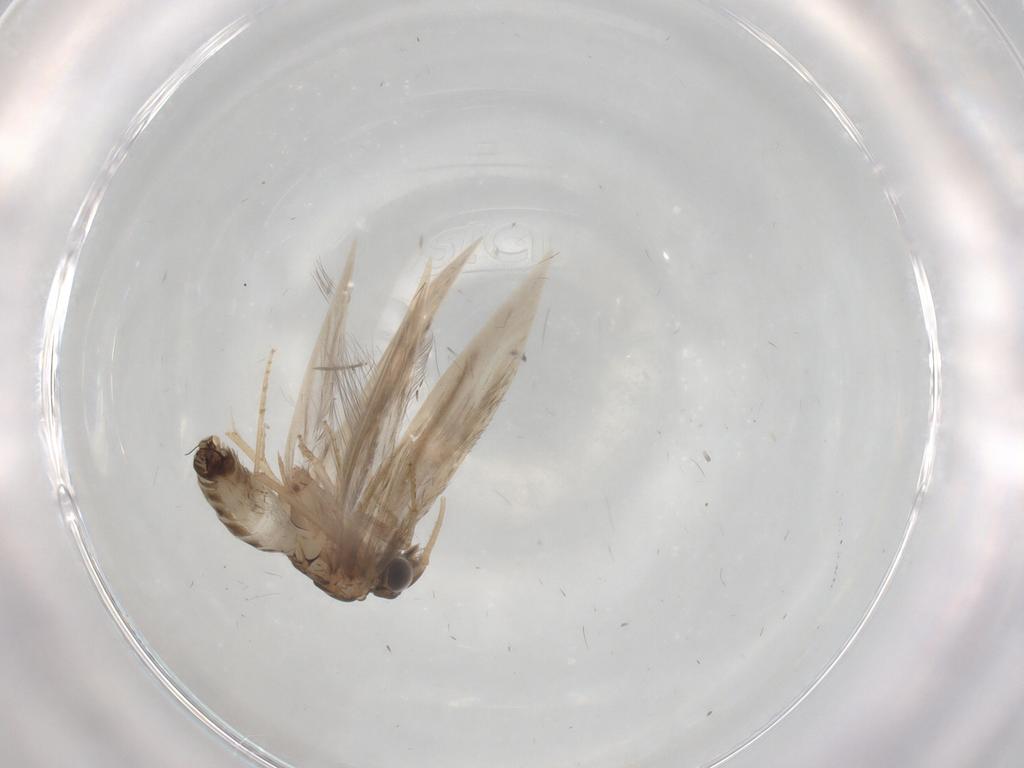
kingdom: Animalia
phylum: Arthropoda
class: Insecta
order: Trichoptera
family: Hydroptilidae
